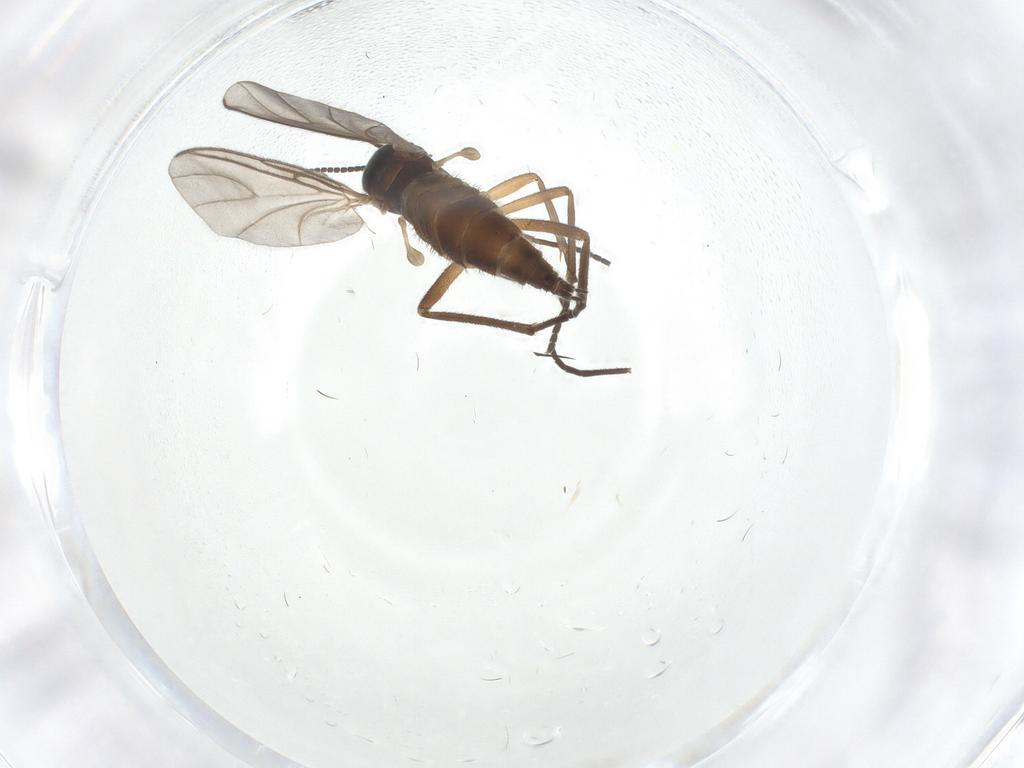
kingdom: Animalia
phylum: Arthropoda
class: Insecta
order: Diptera
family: Sciaridae
